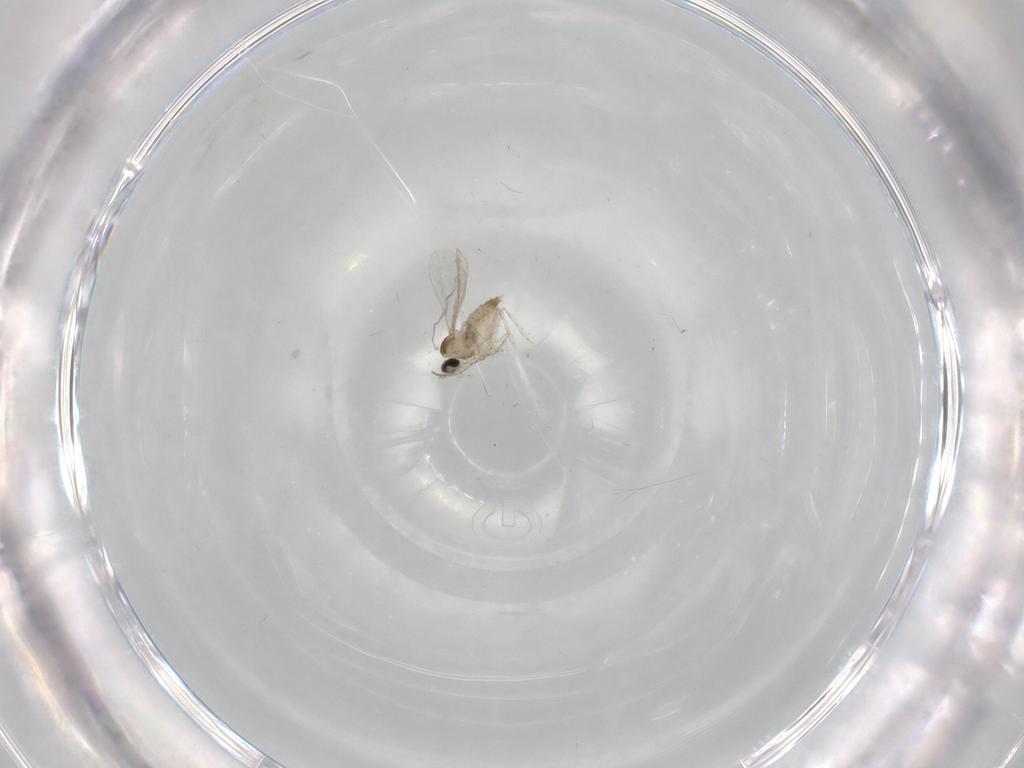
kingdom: Animalia
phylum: Arthropoda
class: Insecta
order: Diptera
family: Ceratopogonidae
